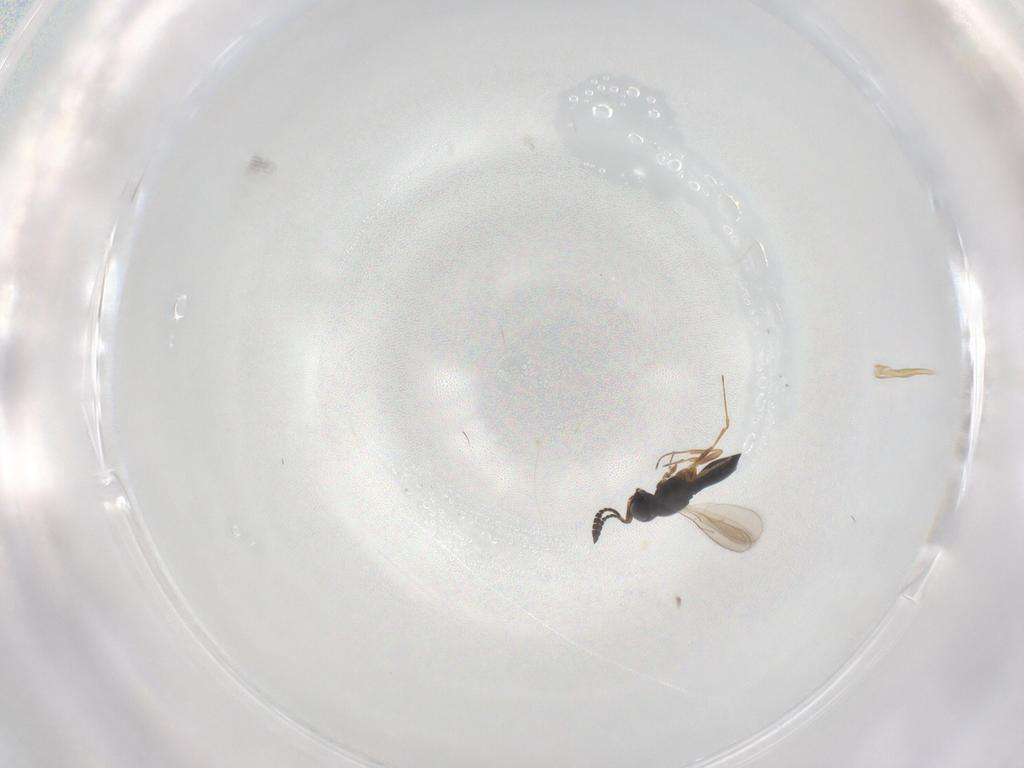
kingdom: Animalia
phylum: Arthropoda
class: Insecta
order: Hymenoptera
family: Scelionidae
